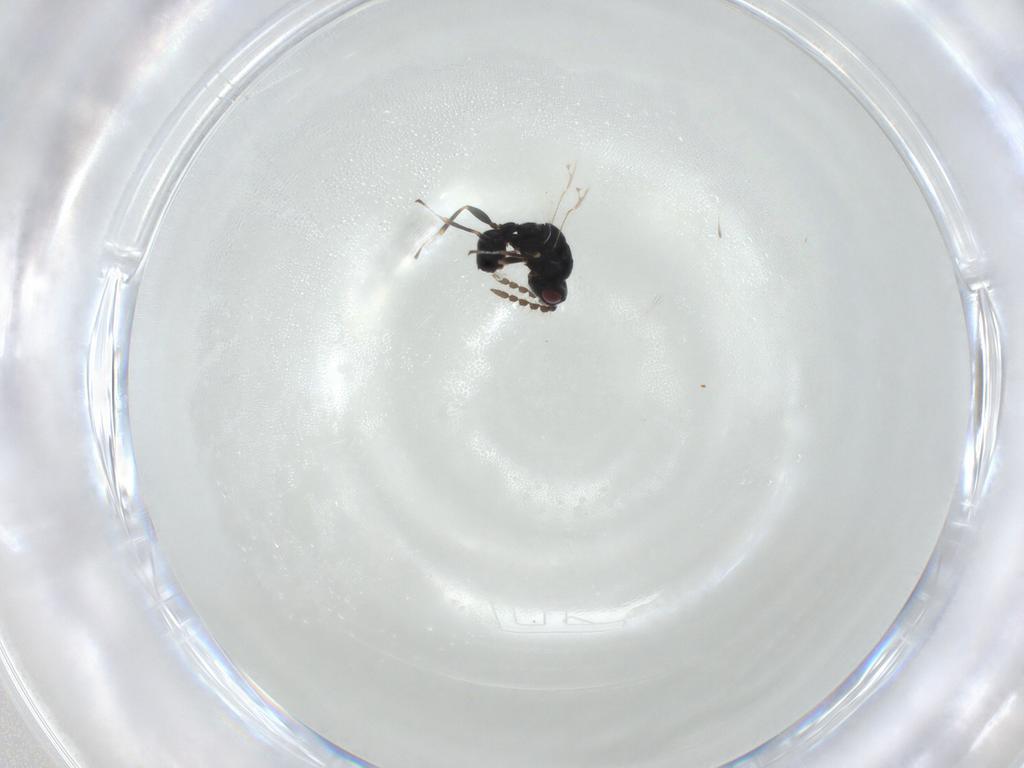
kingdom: Animalia
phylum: Arthropoda
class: Insecta
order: Hymenoptera
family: Eurytomidae
